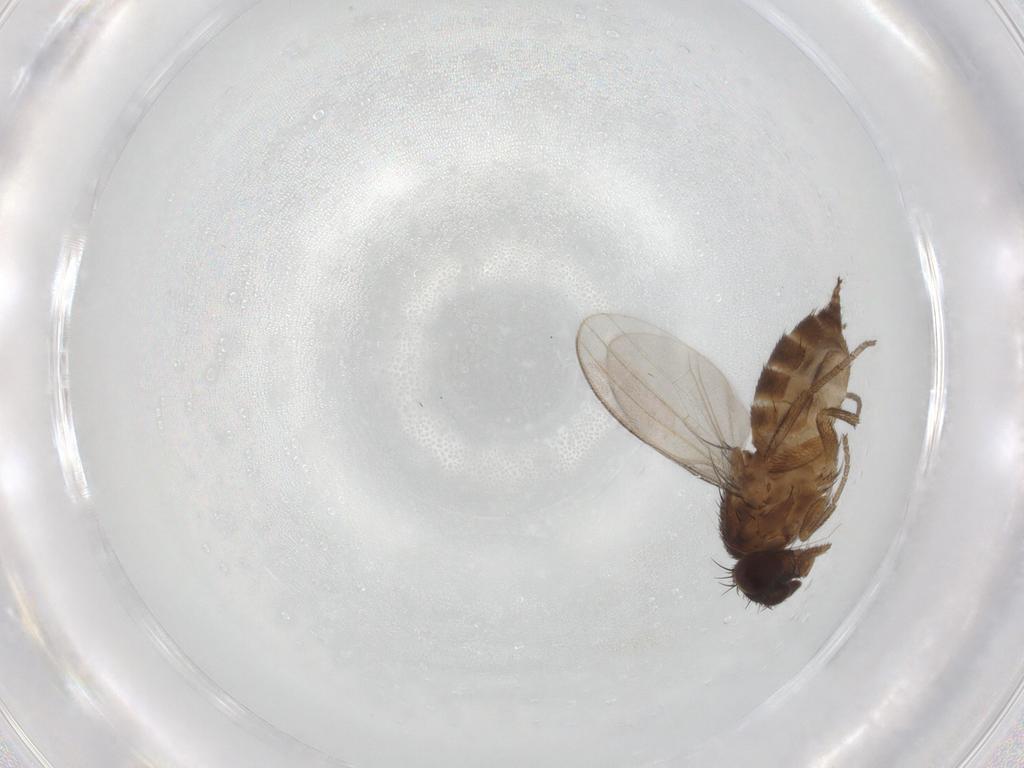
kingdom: Animalia
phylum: Arthropoda
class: Insecta
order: Diptera
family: Milichiidae
